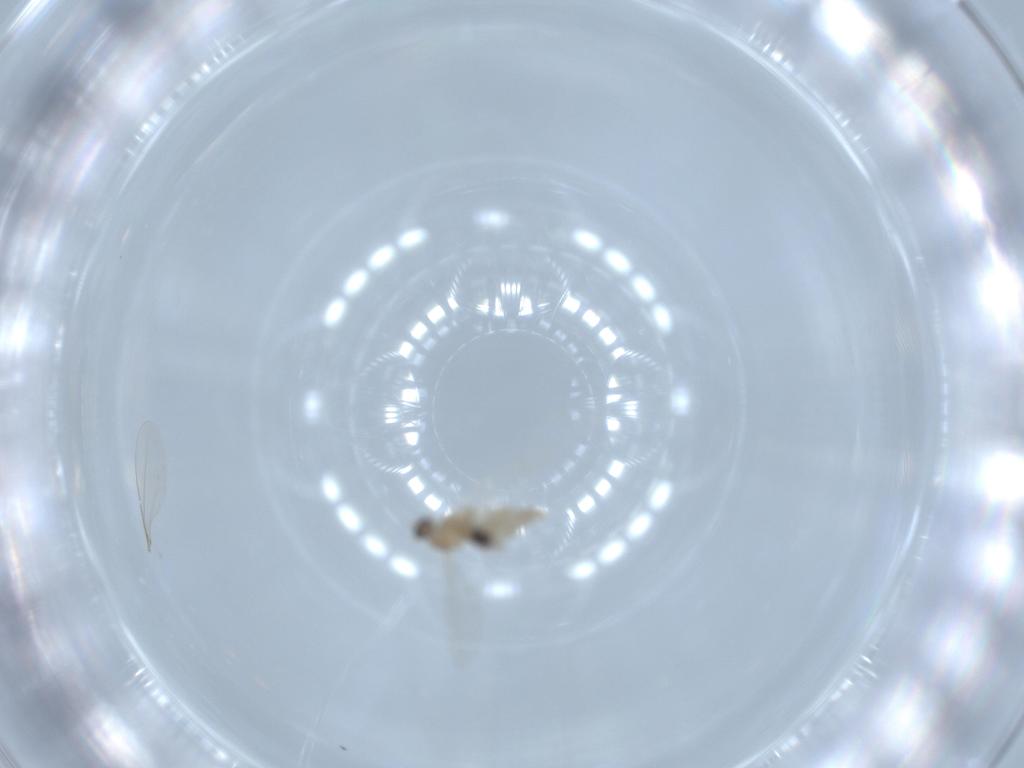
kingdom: Animalia
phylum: Arthropoda
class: Insecta
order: Diptera
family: Cecidomyiidae
